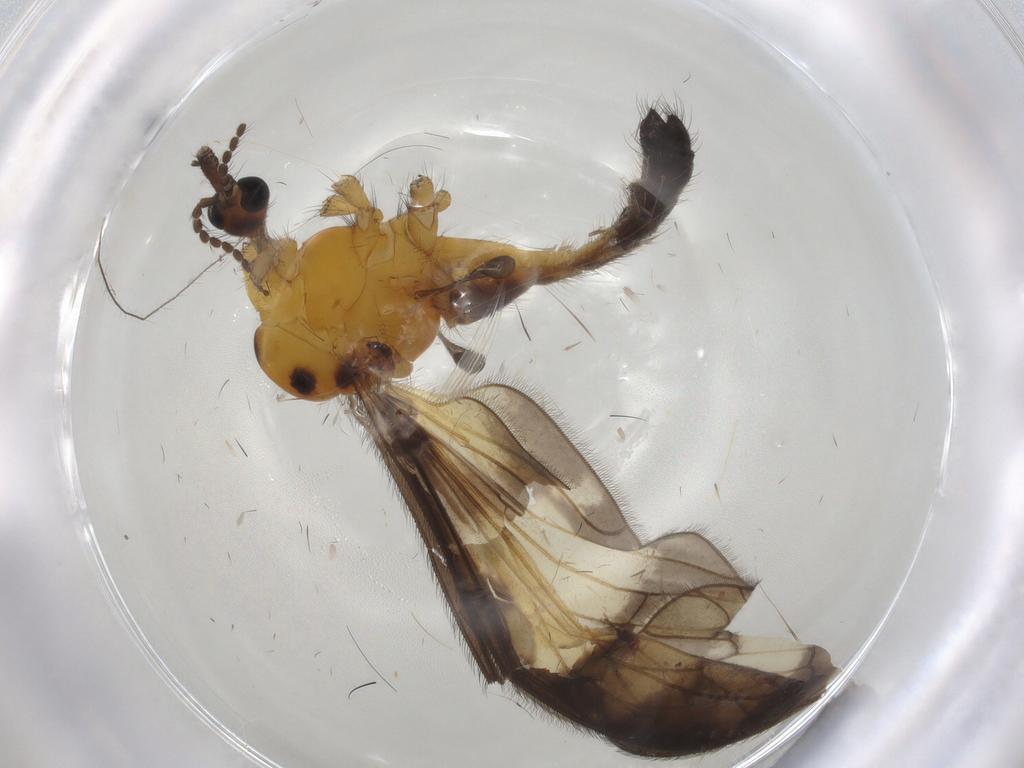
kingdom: Animalia
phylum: Arthropoda
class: Insecta
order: Diptera
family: Limoniidae
